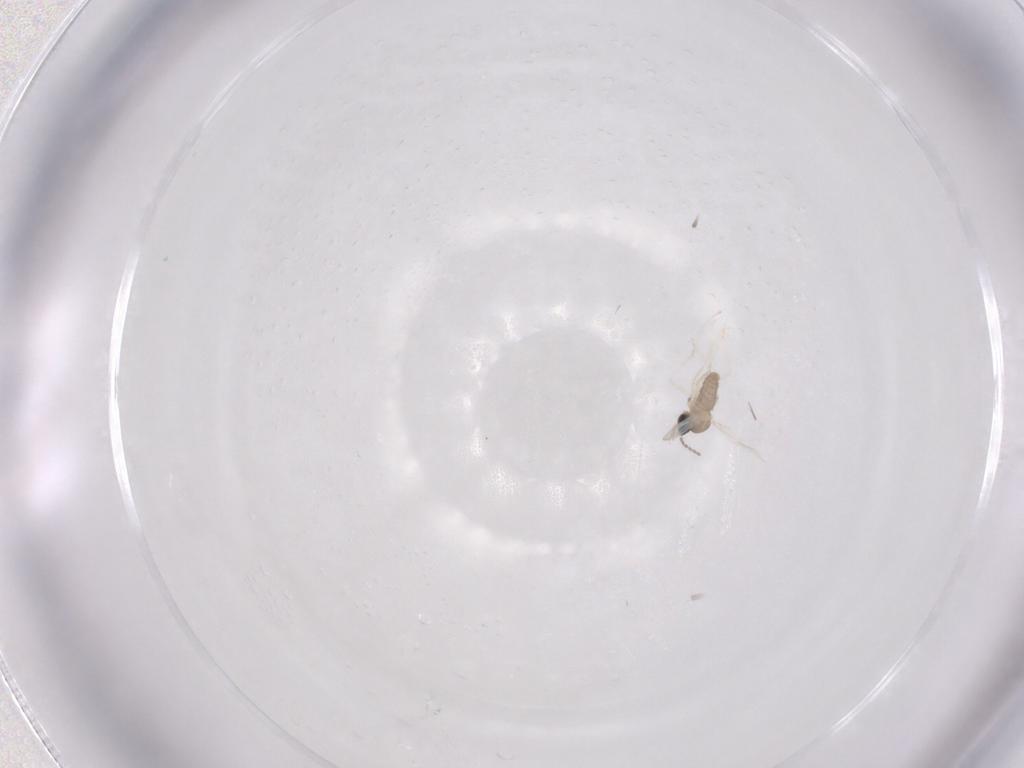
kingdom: Animalia
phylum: Arthropoda
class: Insecta
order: Diptera
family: Cecidomyiidae
